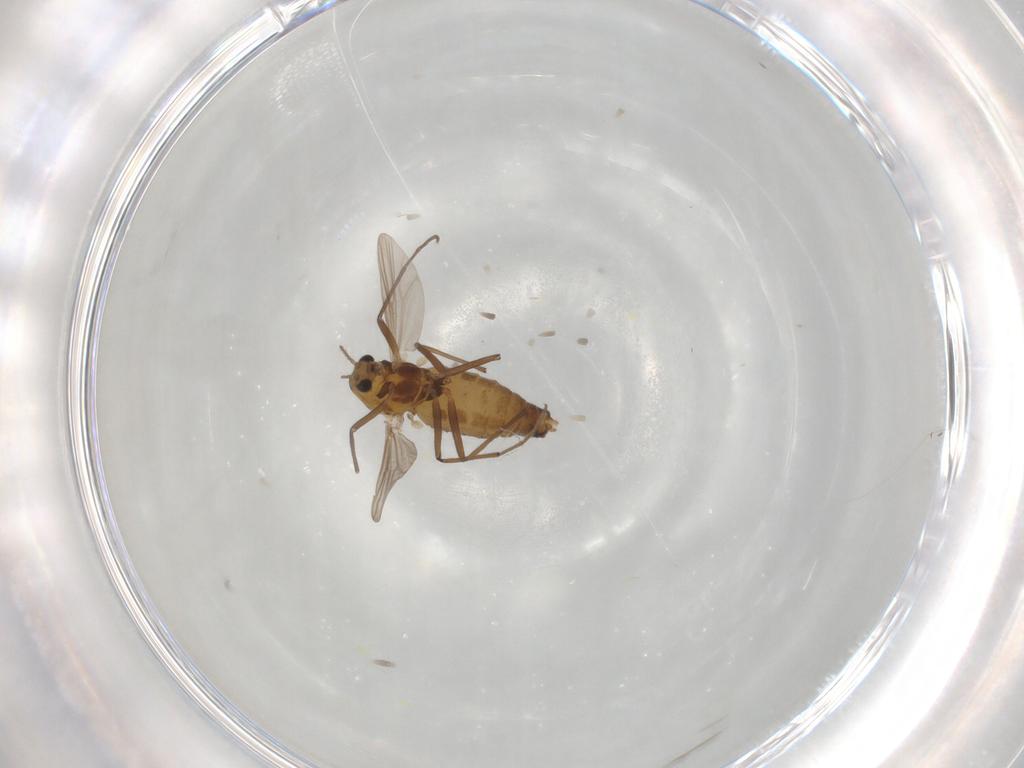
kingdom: Animalia
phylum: Arthropoda
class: Insecta
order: Diptera
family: Chironomidae
